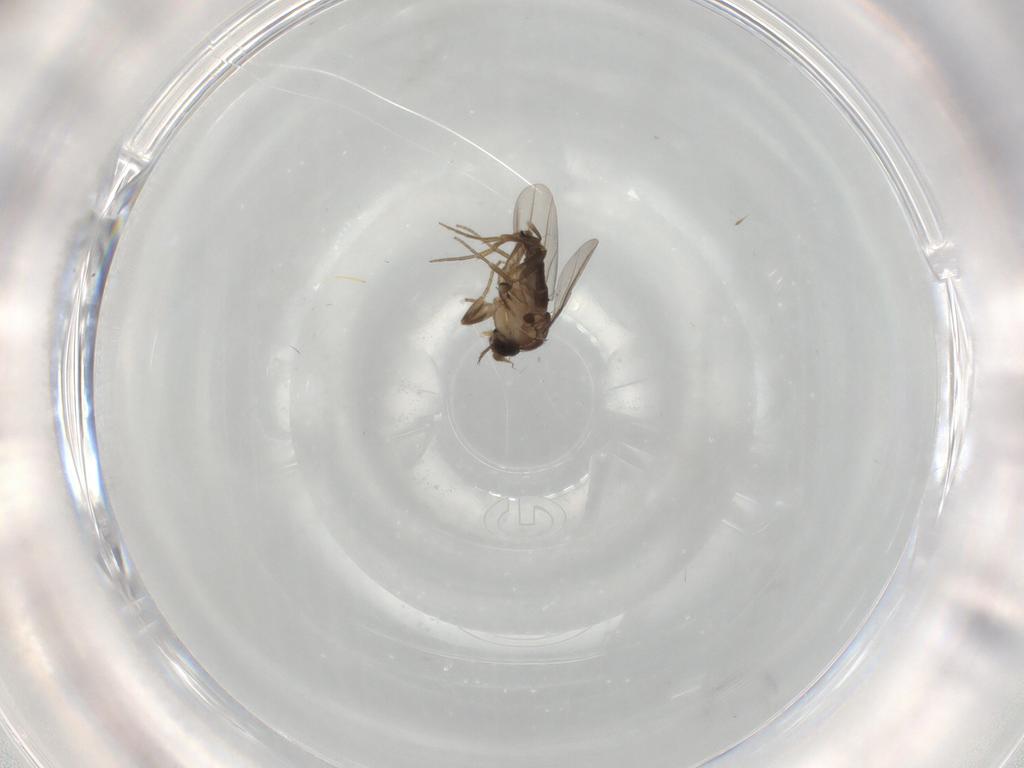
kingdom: Animalia
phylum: Arthropoda
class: Insecta
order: Diptera
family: Phoridae
